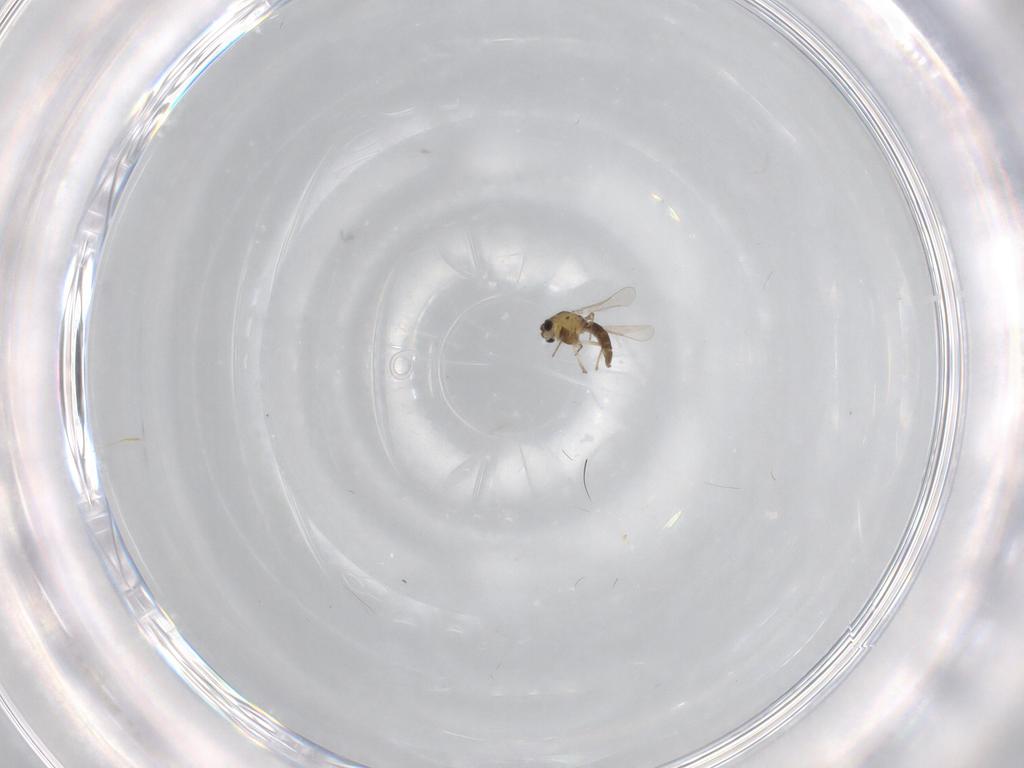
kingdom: Animalia
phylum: Arthropoda
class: Insecta
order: Diptera
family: Chironomidae
